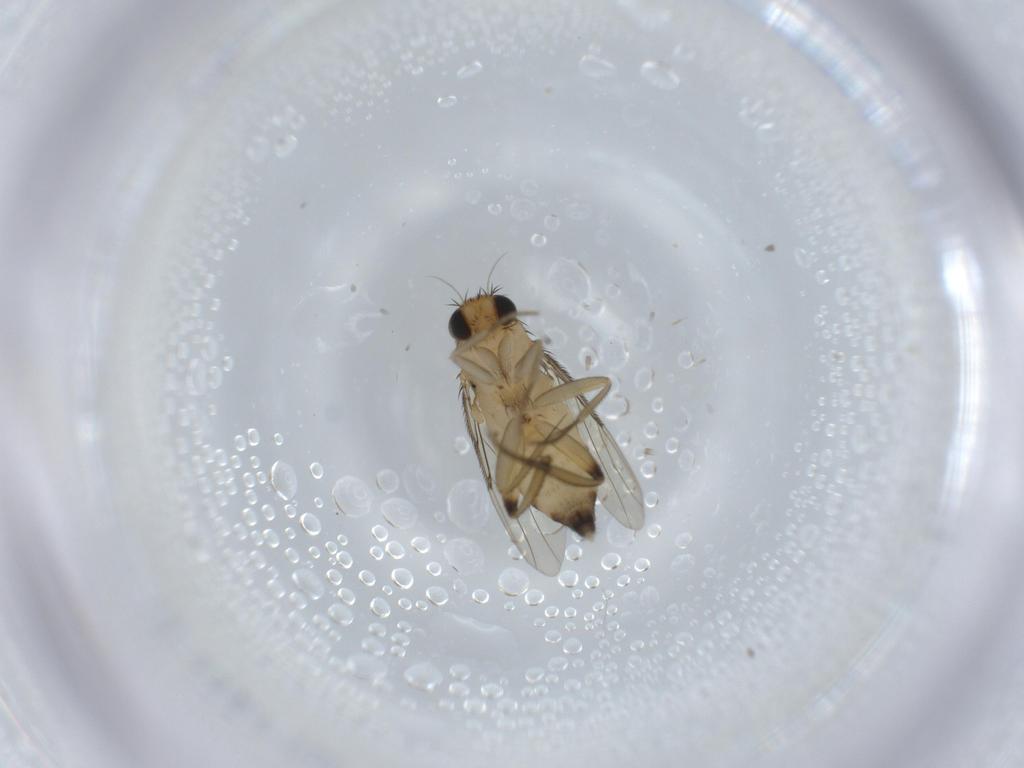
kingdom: Animalia
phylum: Arthropoda
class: Insecta
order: Diptera
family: Phoridae
